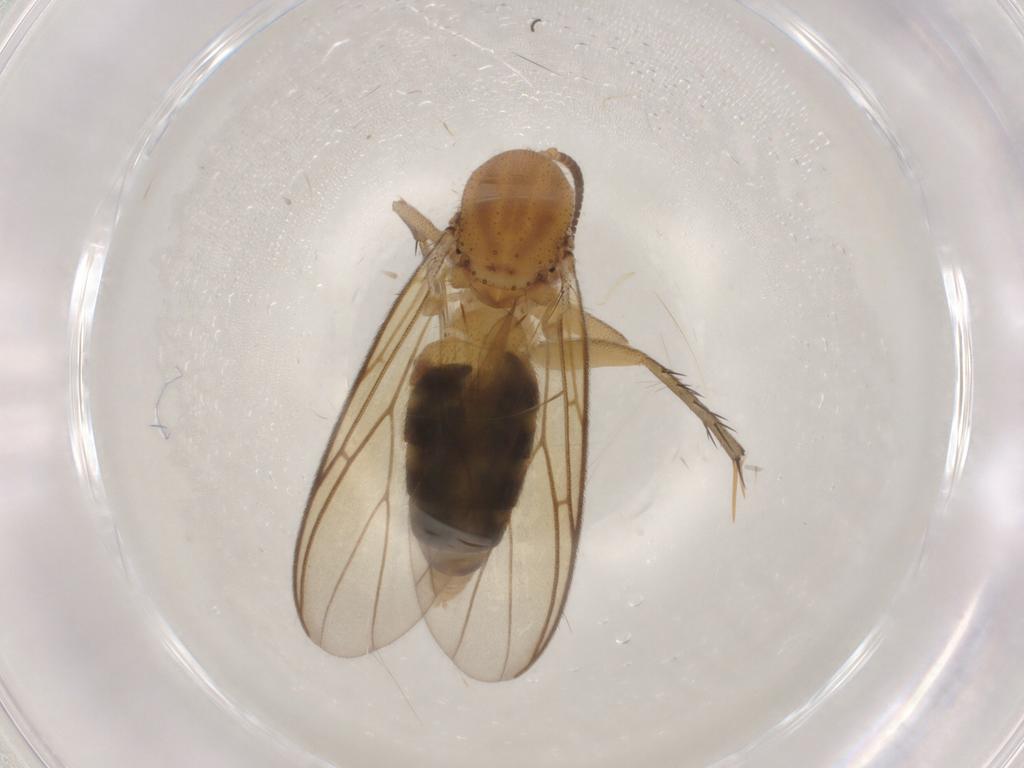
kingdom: Animalia
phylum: Arthropoda
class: Insecta
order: Diptera
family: Mycetophilidae
